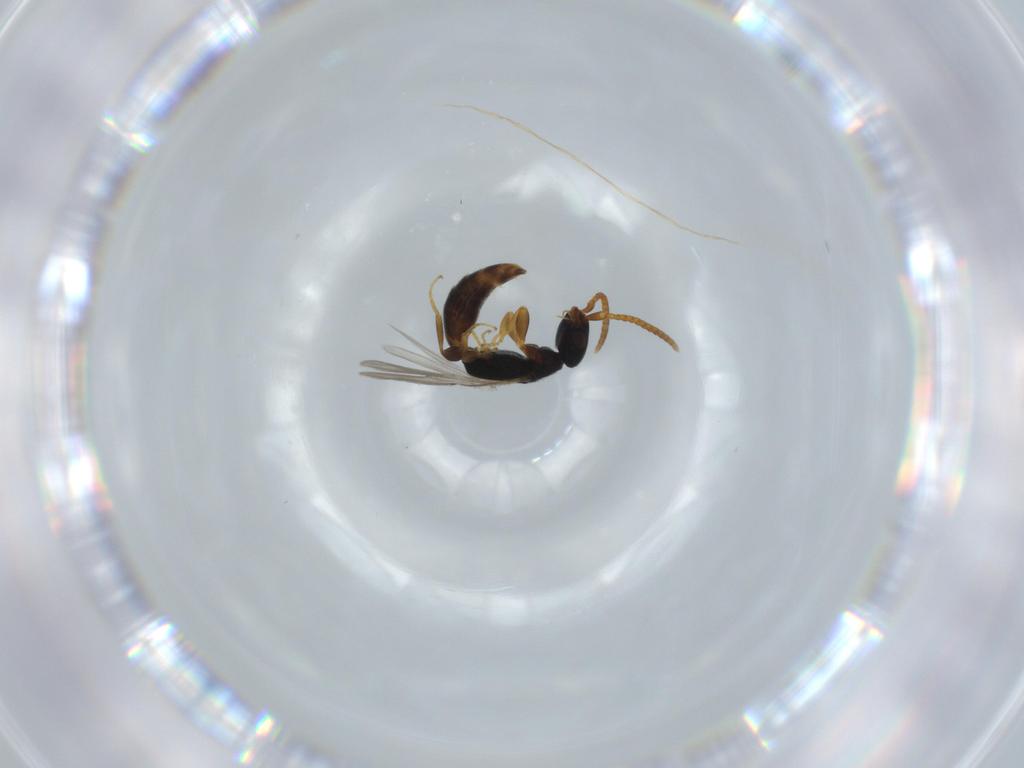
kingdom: Animalia
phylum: Arthropoda
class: Insecta
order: Hymenoptera
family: Bethylidae
